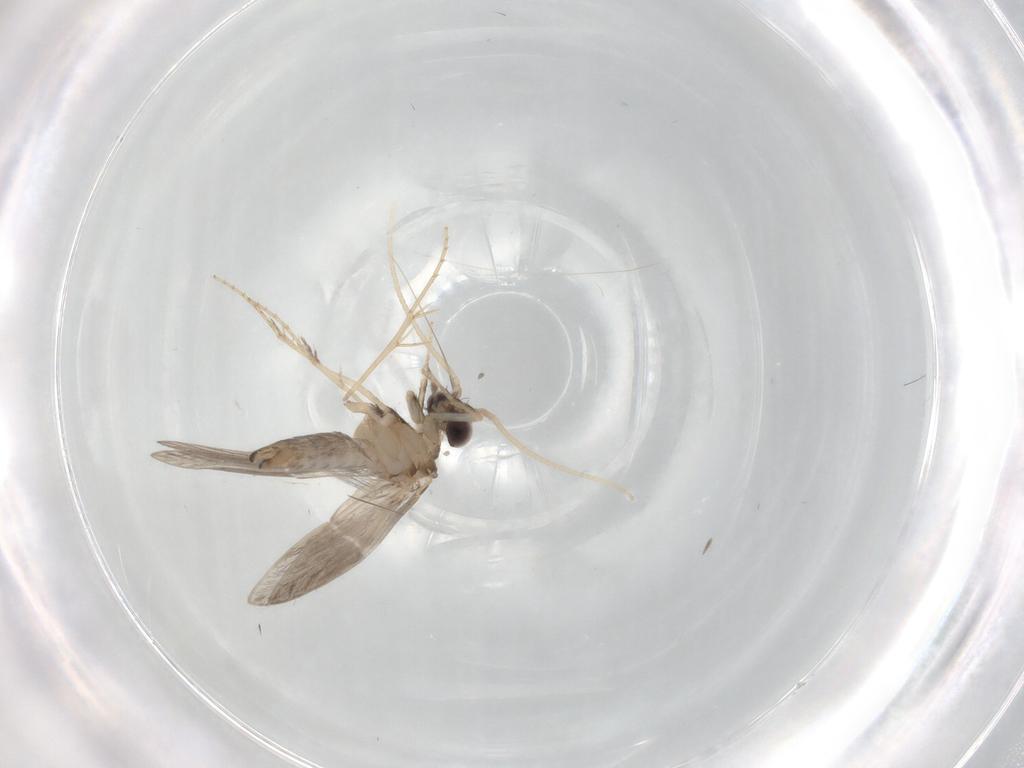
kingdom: Animalia
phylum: Arthropoda
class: Insecta
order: Trichoptera
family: Hydroptilidae
